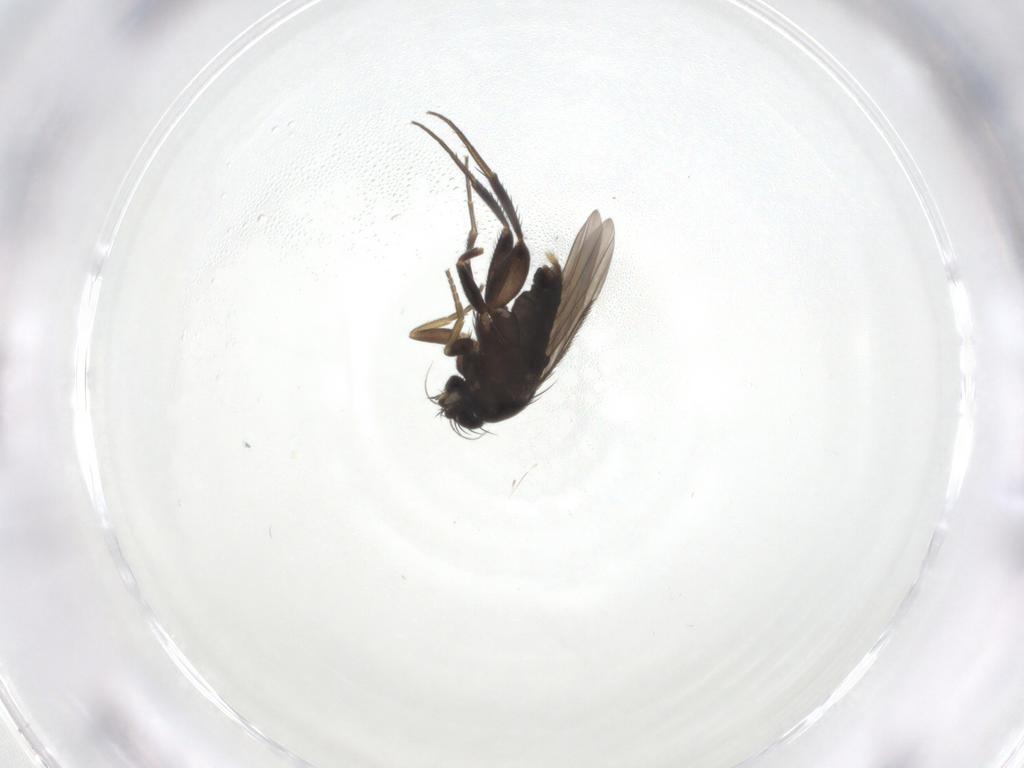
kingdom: Animalia
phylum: Arthropoda
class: Insecta
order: Diptera
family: Phoridae
